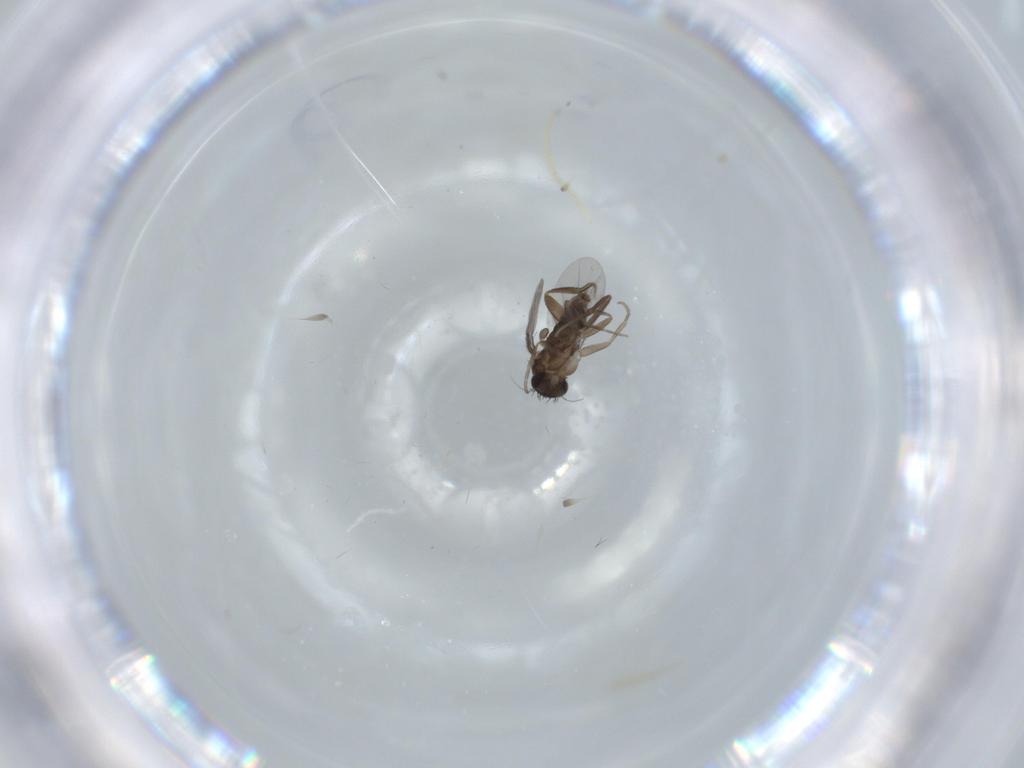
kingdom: Animalia
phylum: Arthropoda
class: Insecta
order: Diptera
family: Phoridae
